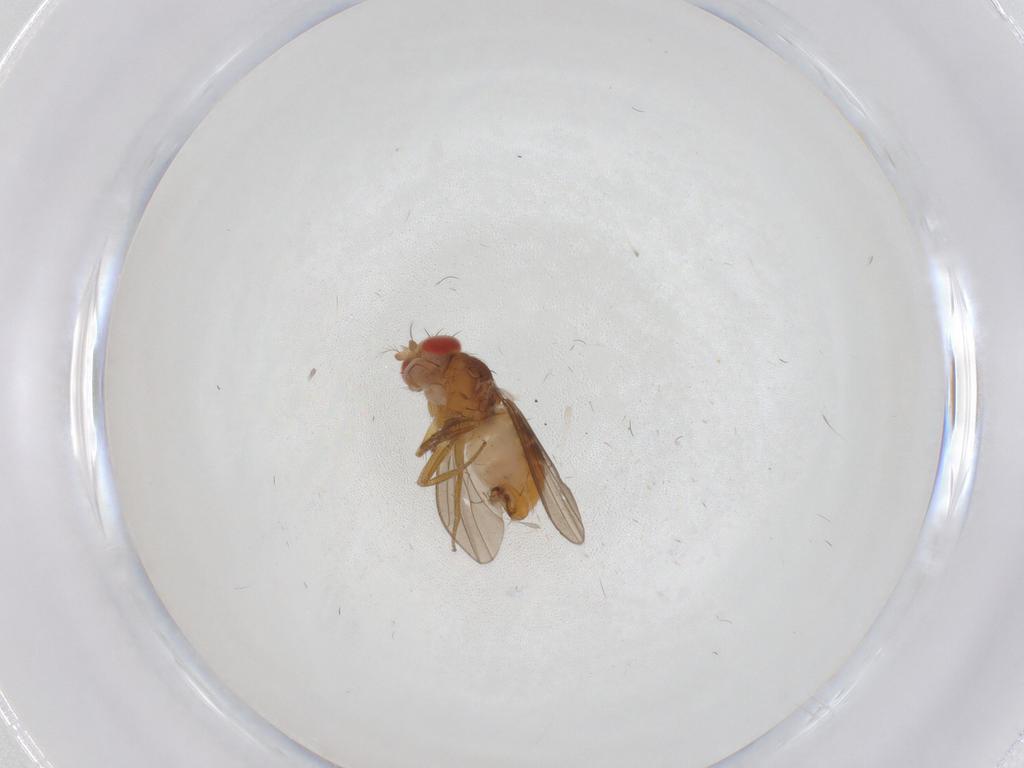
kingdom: Animalia
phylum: Arthropoda
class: Insecta
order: Diptera
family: Drosophilidae
